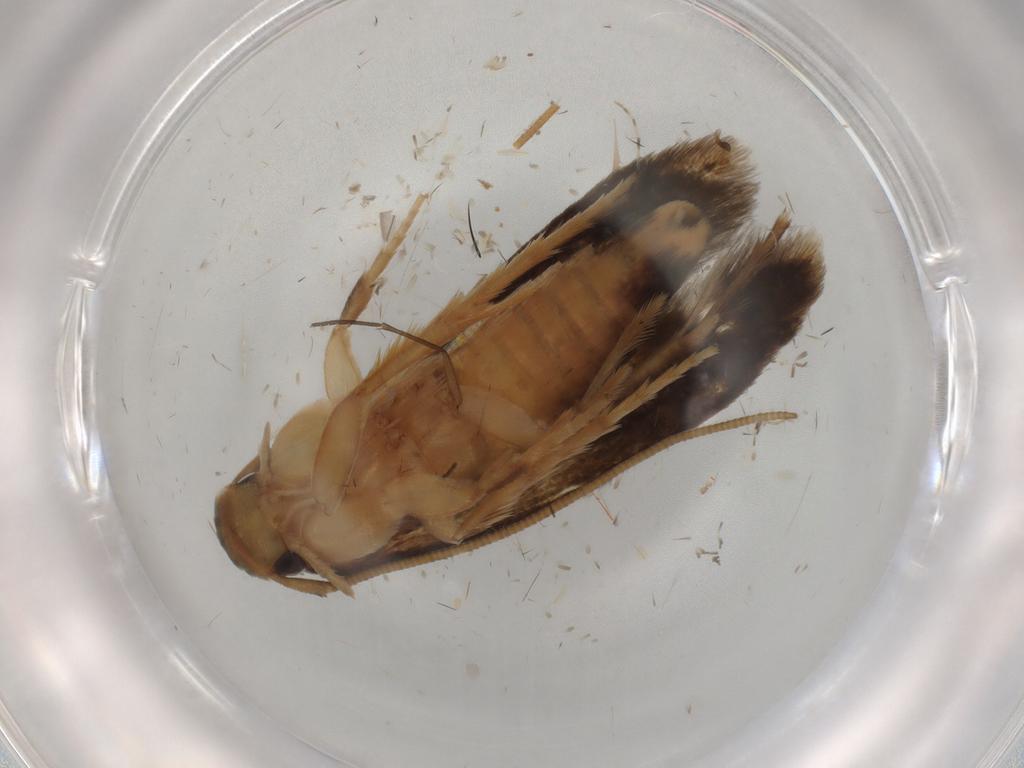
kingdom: Animalia
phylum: Arthropoda
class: Insecta
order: Lepidoptera
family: Tineidae
